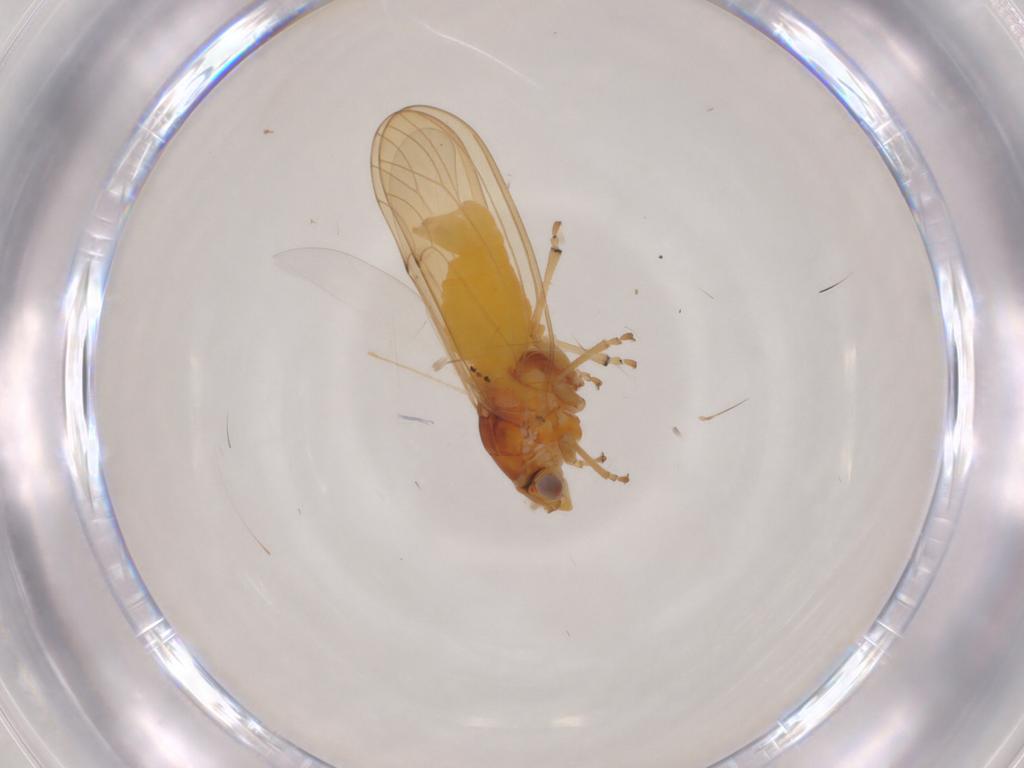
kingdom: Animalia
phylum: Arthropoda
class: Insecta
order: Hemiptera
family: Psylloidea_incertae_sedis
